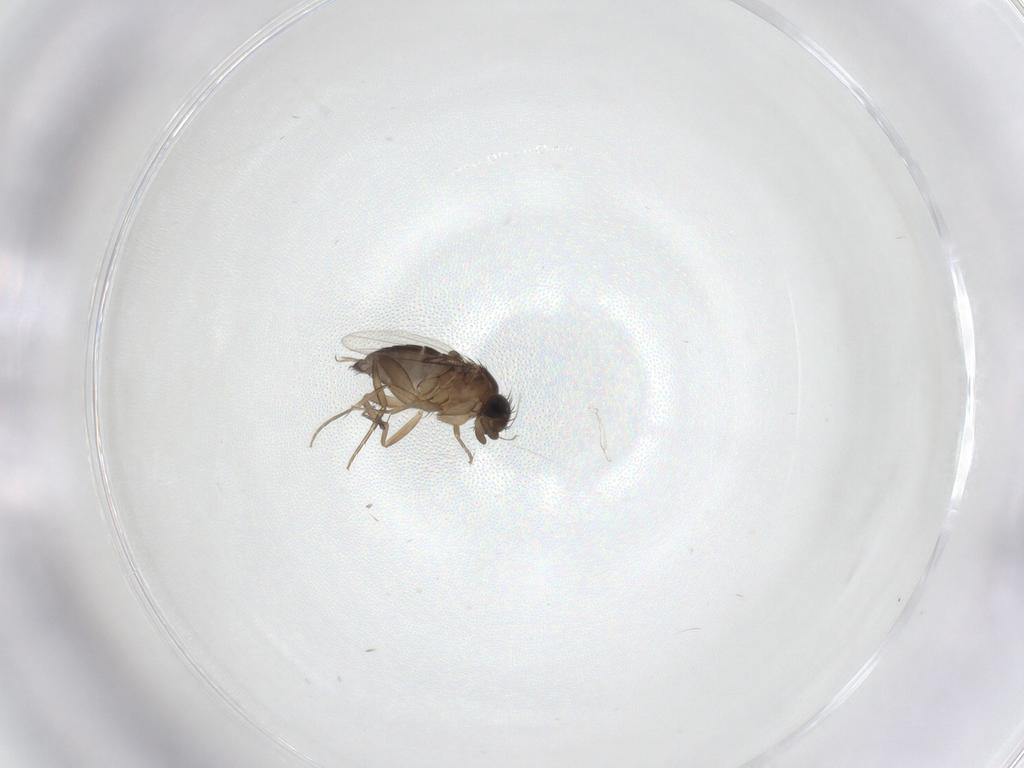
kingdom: Animalia
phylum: Arthropoda
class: Insecta
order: Diptera
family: Phoridae
